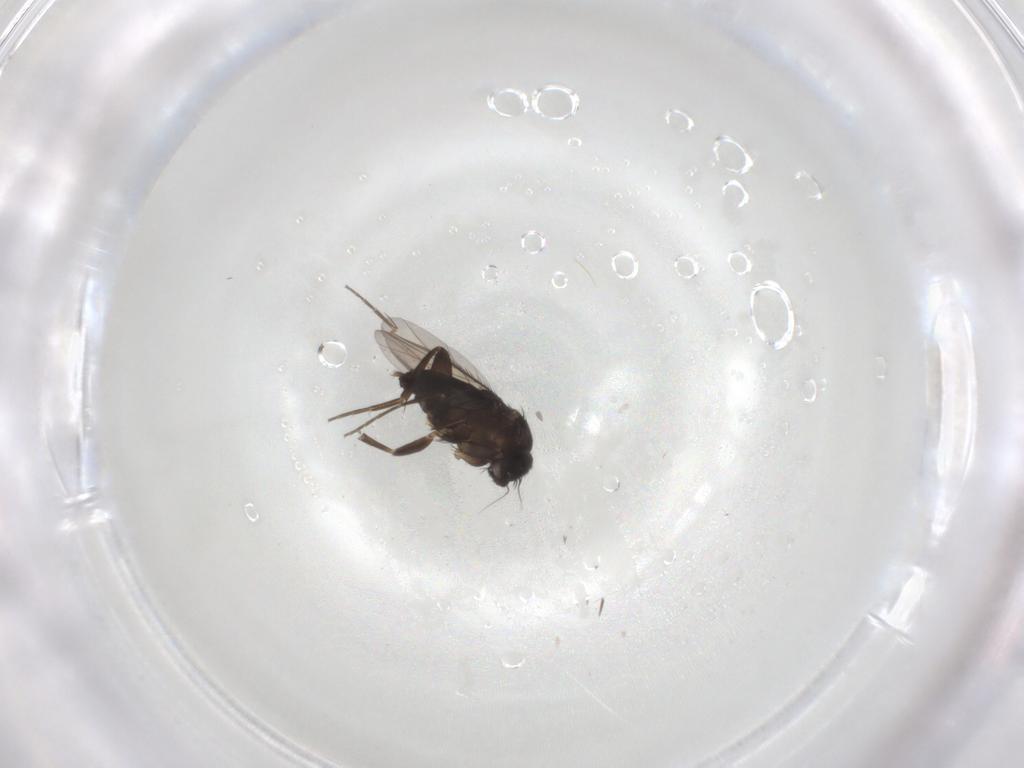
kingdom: Animalia
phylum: Arthropoda
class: Insecta
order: Diptera
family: Phoridae
